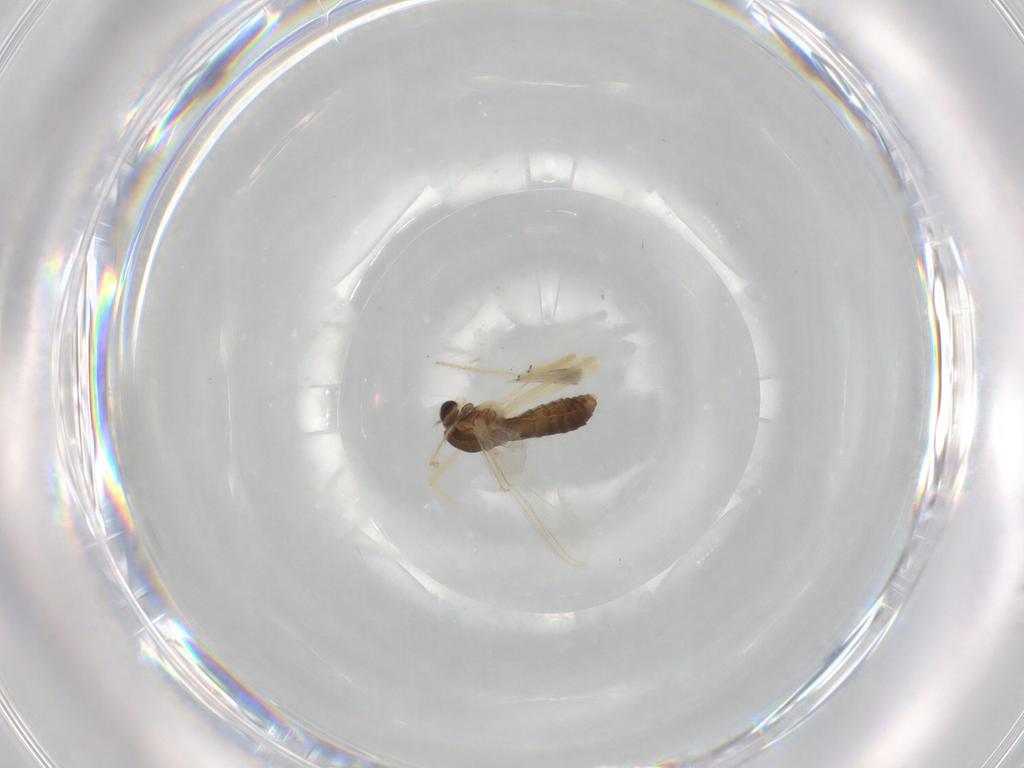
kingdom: Animalia
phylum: Arthropoda
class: Insecta
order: Diptera
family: Chironomidae
